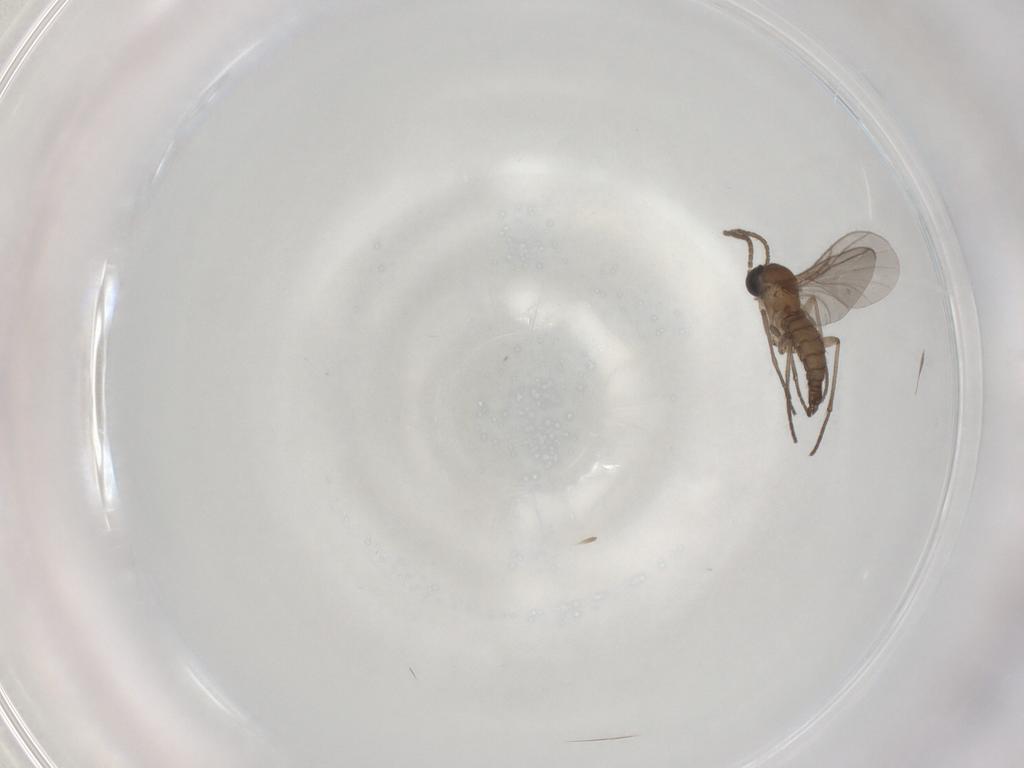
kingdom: Animalia
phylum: Arthropoda
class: Insecta
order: Diptera
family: Sciaridae
